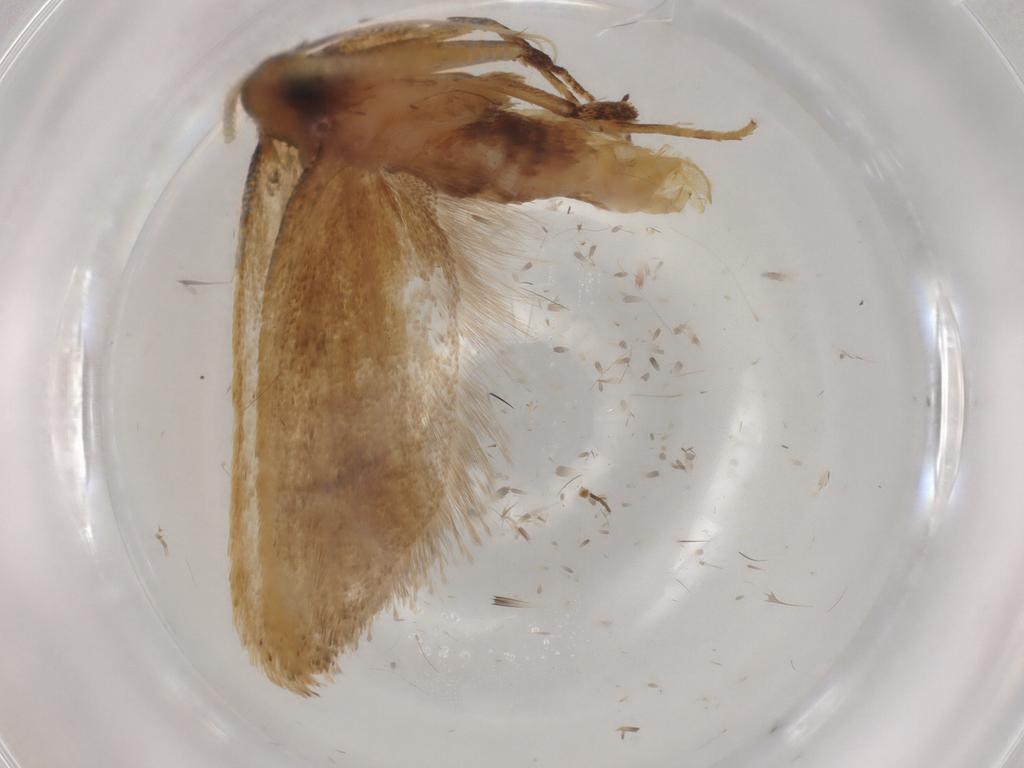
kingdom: Animalia
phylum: Arthropoda
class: Insecta
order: Lepidoptera
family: Lecithoceridae
